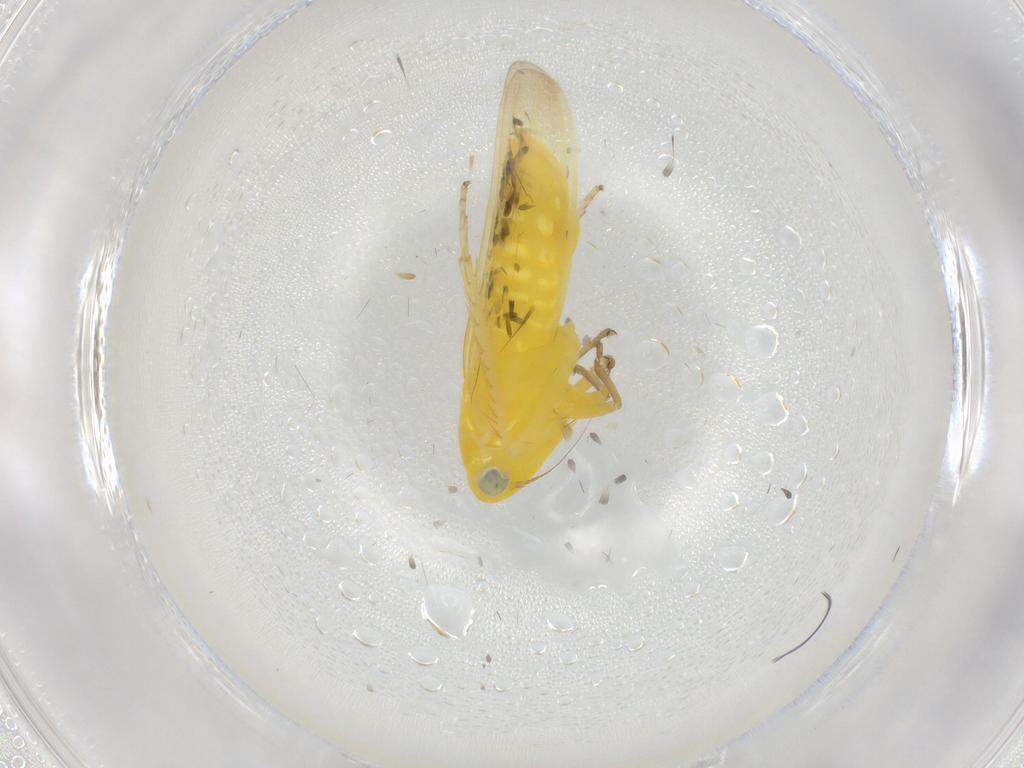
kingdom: Animalia
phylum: Arthropoda
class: Insecta
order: Hemiptera
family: Cicadellidae
